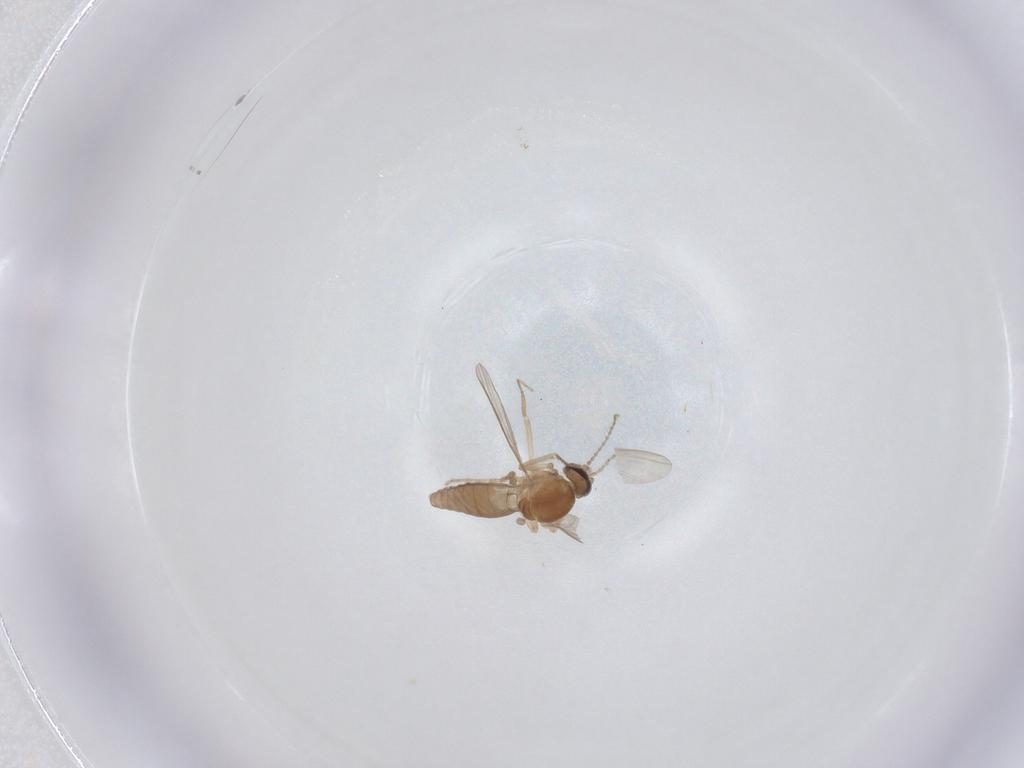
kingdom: Animalia
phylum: Arthropoda
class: Insecta
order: Diptera
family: Ceratopogonidae
